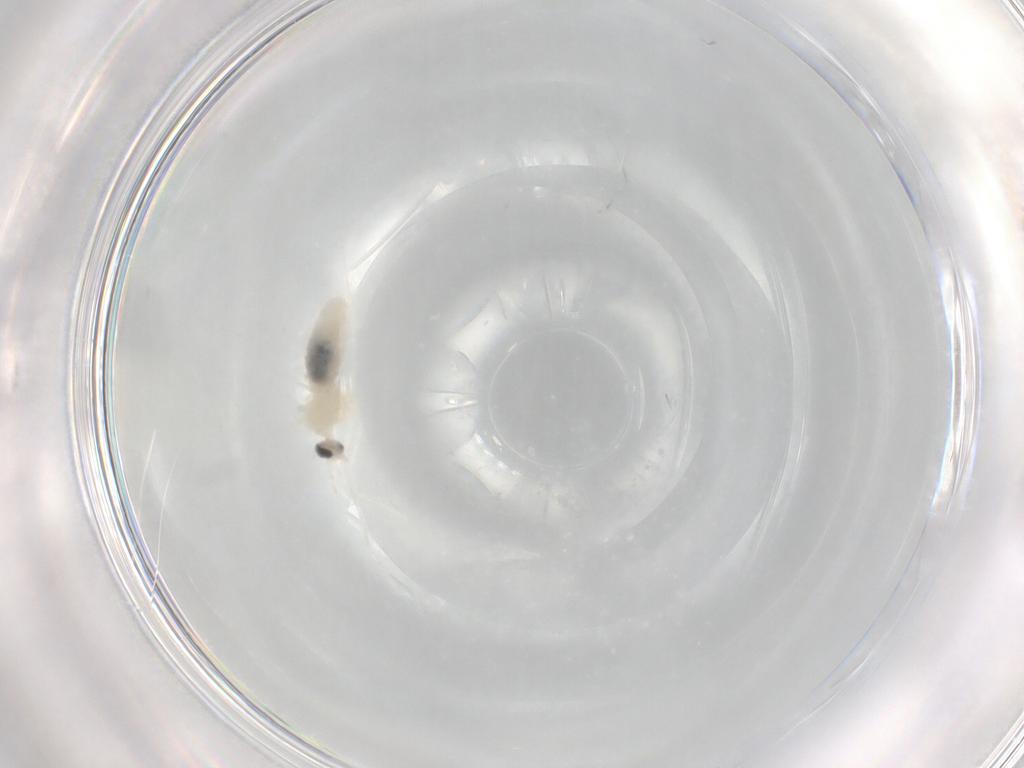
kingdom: Animalia
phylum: Arthropoda
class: Insecta
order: Diptera
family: Cecidomyiidae
